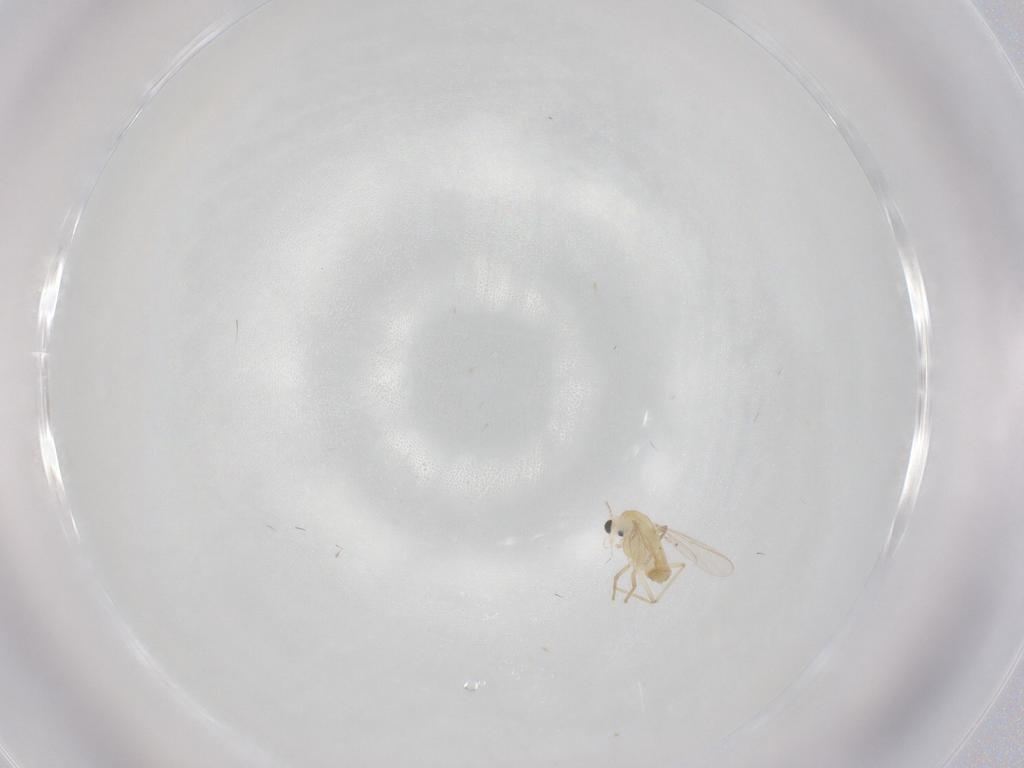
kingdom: Animalia
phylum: Arthropoda
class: Insecta
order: Diptera
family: Chironomidae
